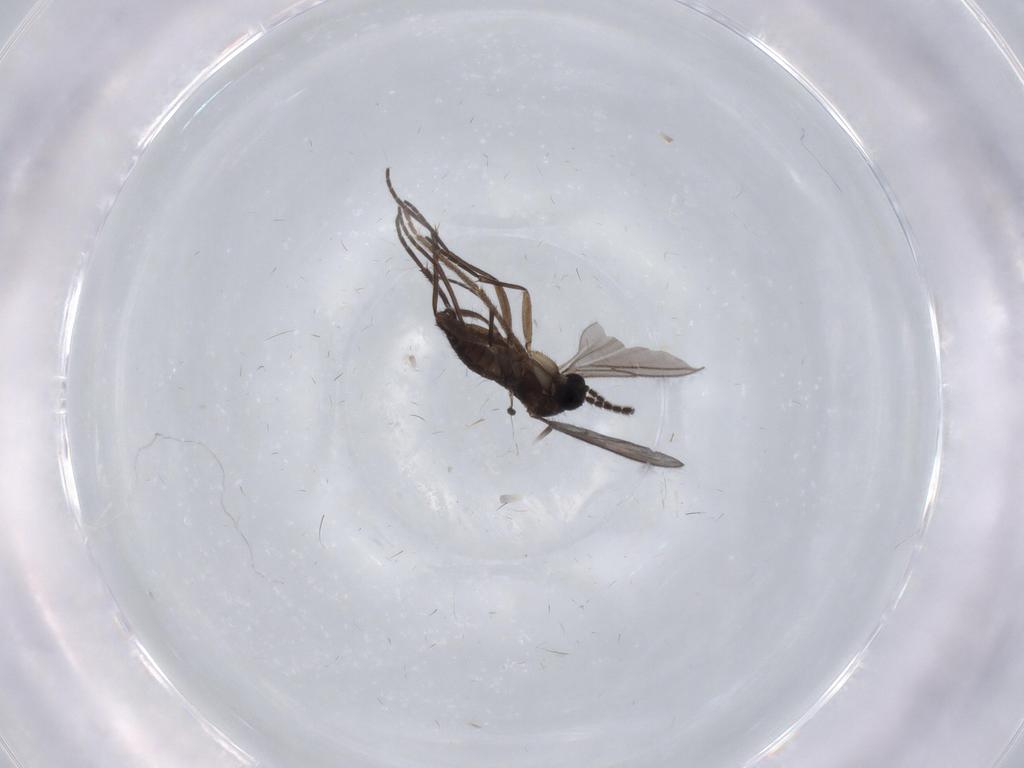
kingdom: Animalia
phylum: Arthropoda
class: Insecta
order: Diptera
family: Limoniidae
